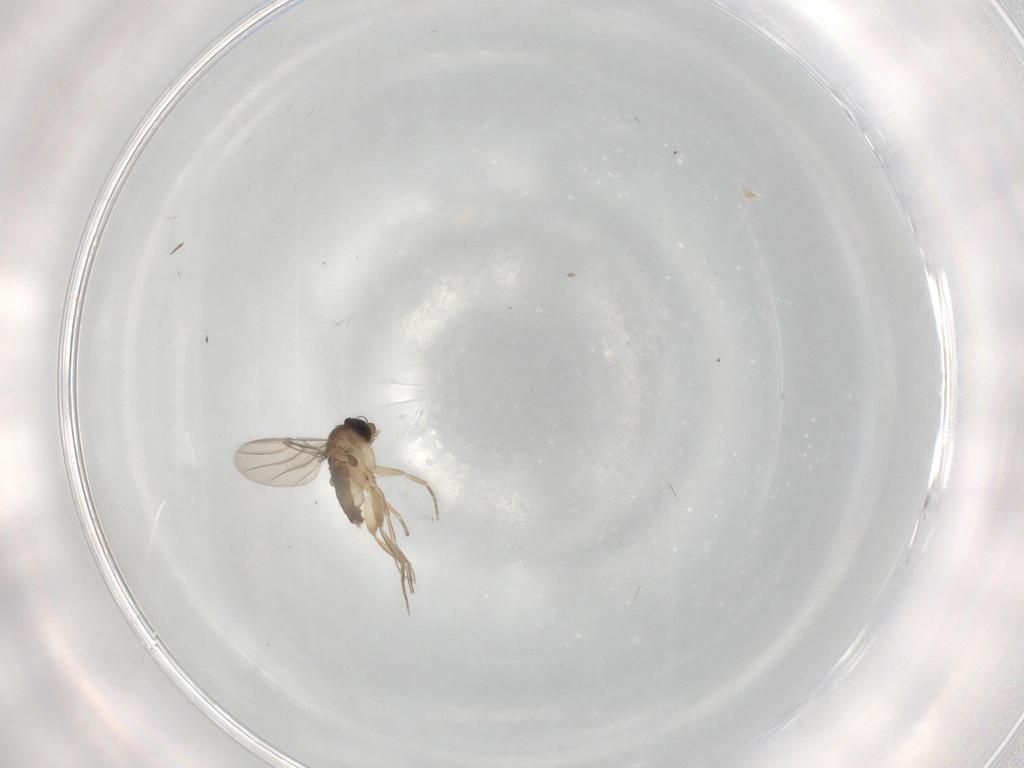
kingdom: Animalia
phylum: Arthropoda
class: Insecta
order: Diptera
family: Phoridae
